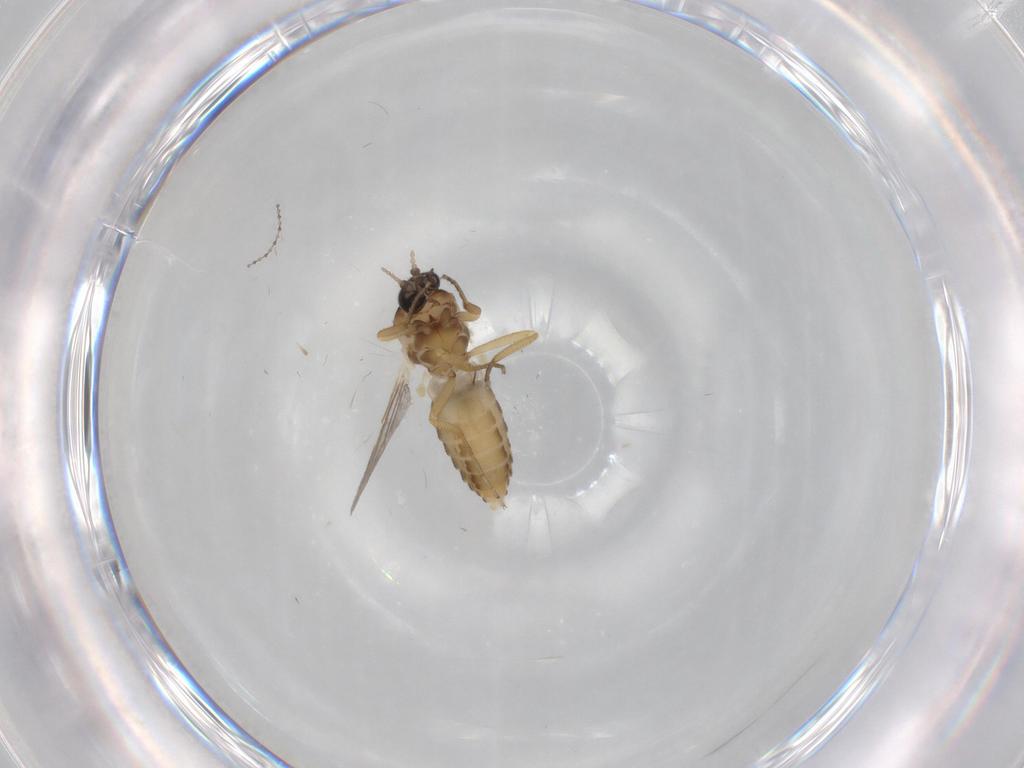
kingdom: Animalia
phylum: Arthropoda
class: Insecta
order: Diptera
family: Ceratopogonidae
